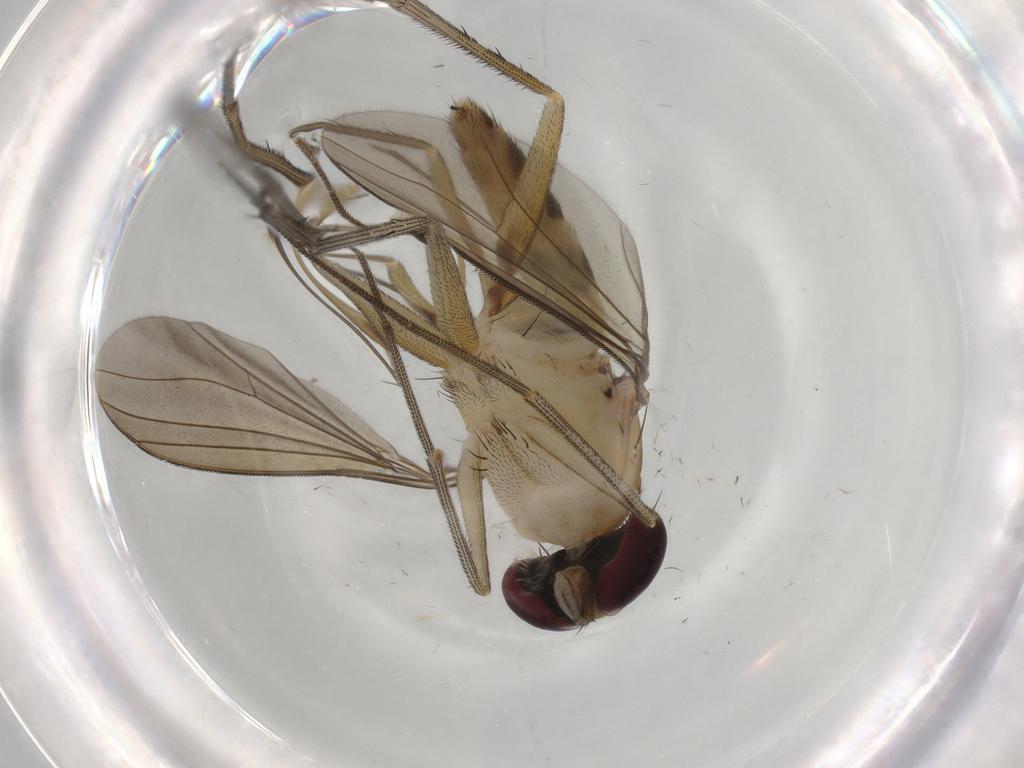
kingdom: Animalia
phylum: Arthropoda
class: Insecta
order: Diptera
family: Dolichopodidae
